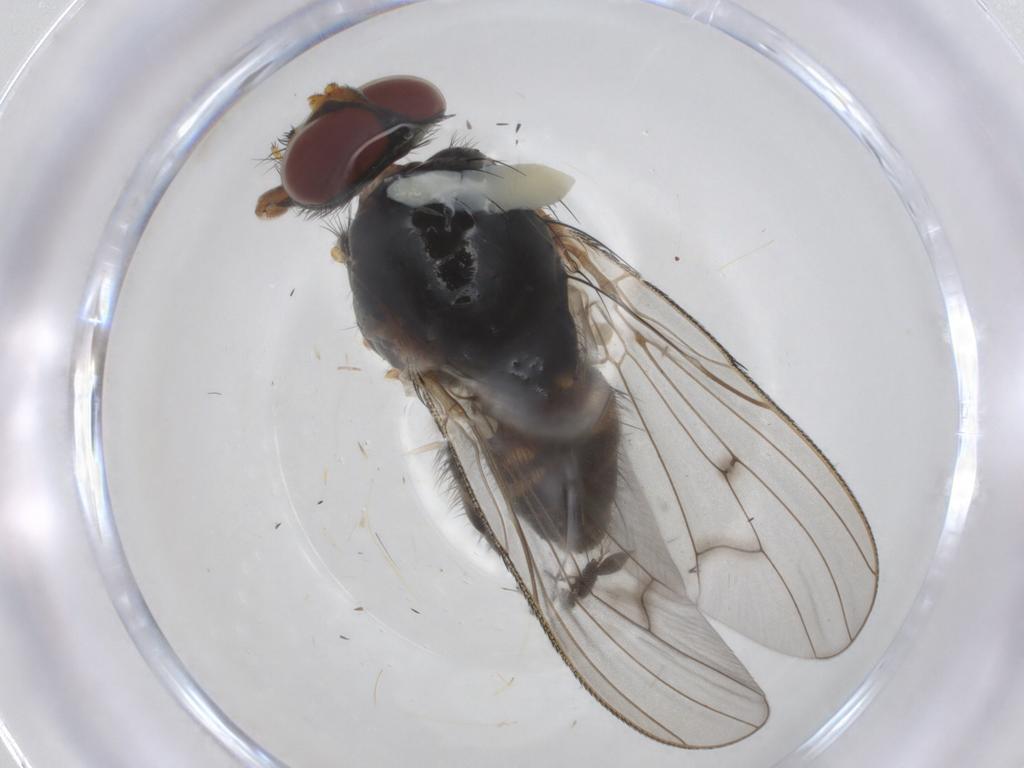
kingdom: Animalia
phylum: Arthropoda
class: Insecta
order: Diptera
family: Anthomyiidae
